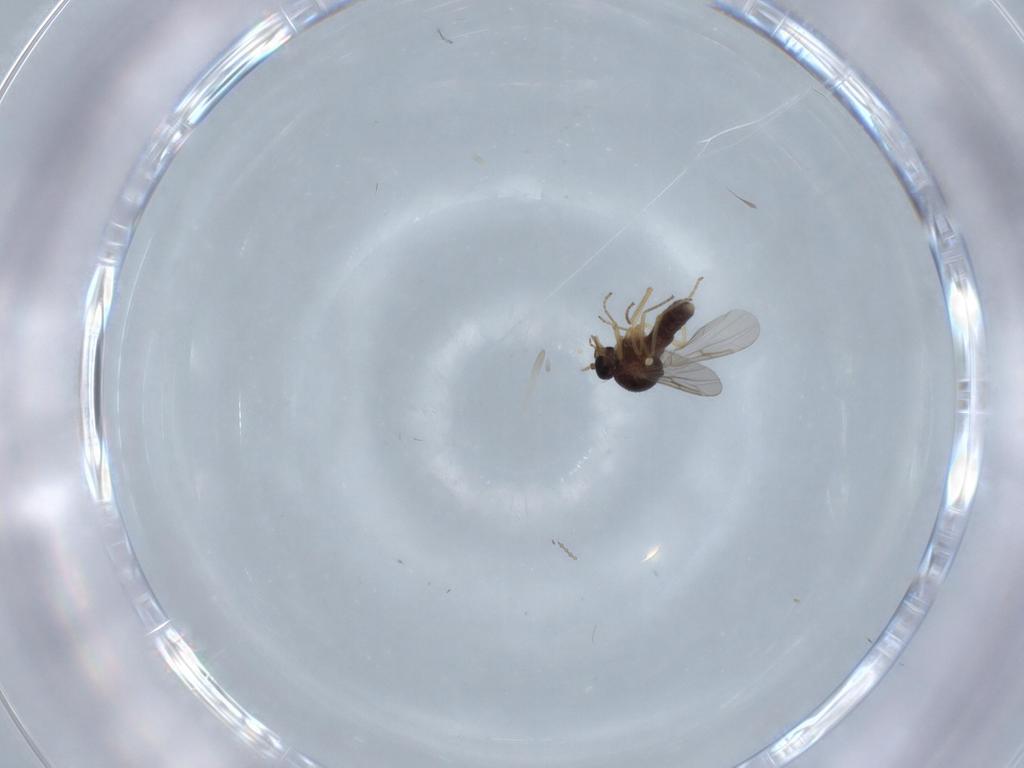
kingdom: Animalia
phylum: Arthropoda
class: Insecta
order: Diptera
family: Ceratopogonidae
